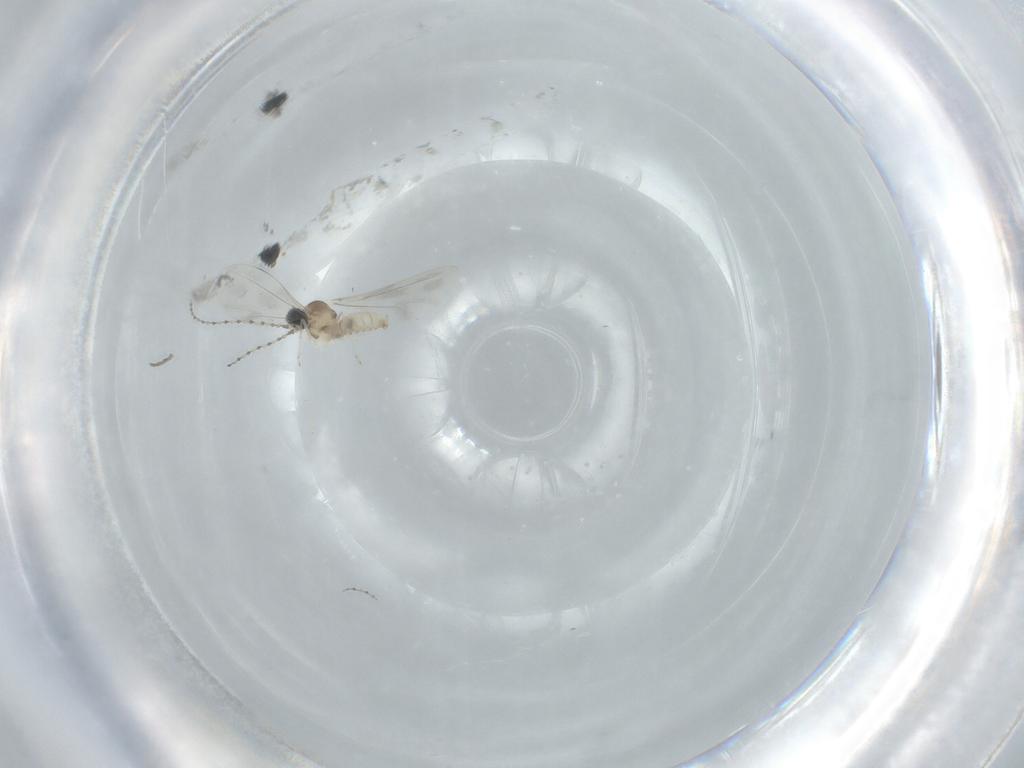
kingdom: Animalia
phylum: Arthropoda
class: Insecta
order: Diptera
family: Cecidomyiidae
